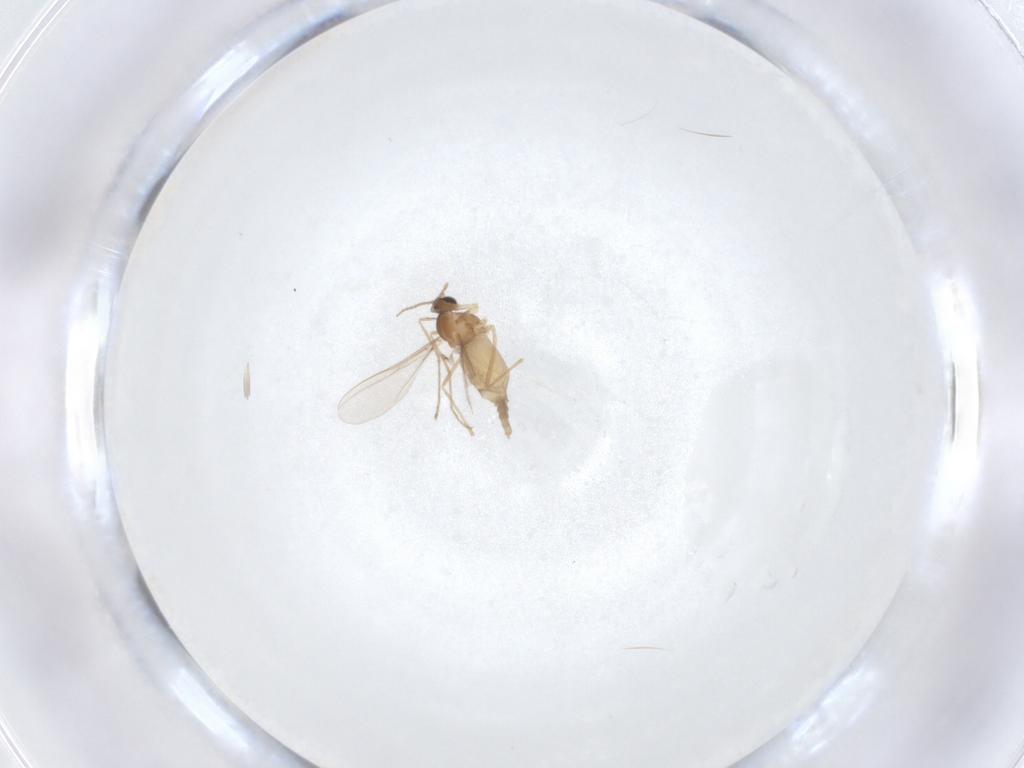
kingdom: Animalia
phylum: Arthropoda
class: Insecta
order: Diptera
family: Cecidomyiidae
